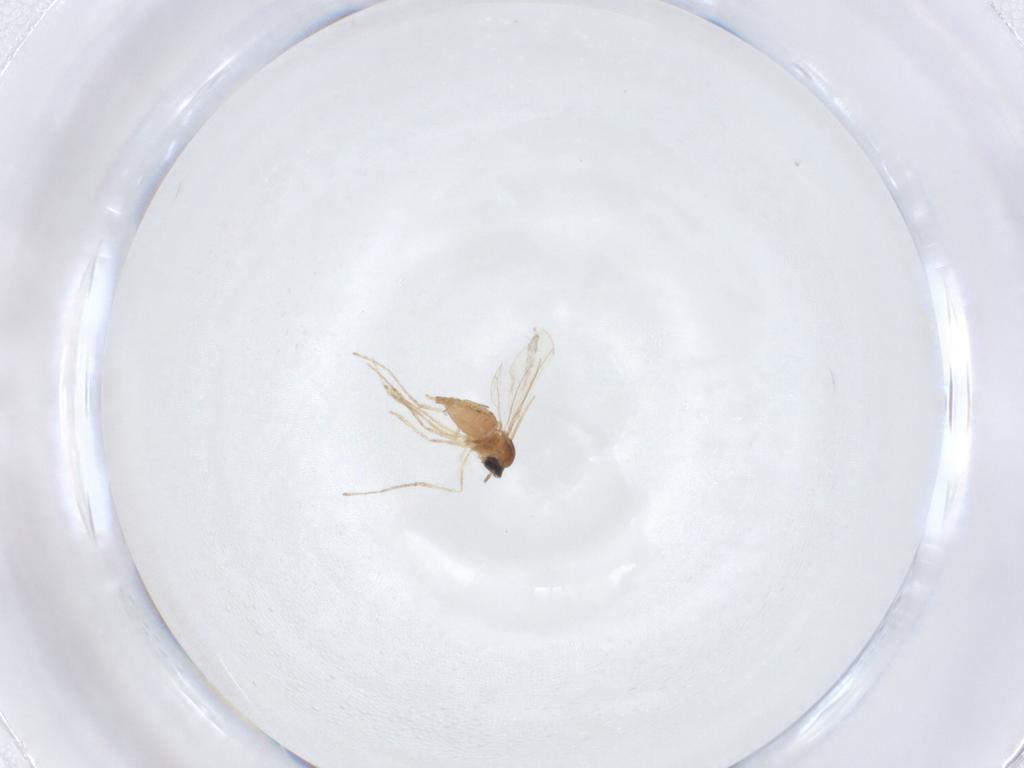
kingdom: Animalia
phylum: Arthropoda
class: Insecta
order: Diptera
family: Cecidomyiidae
